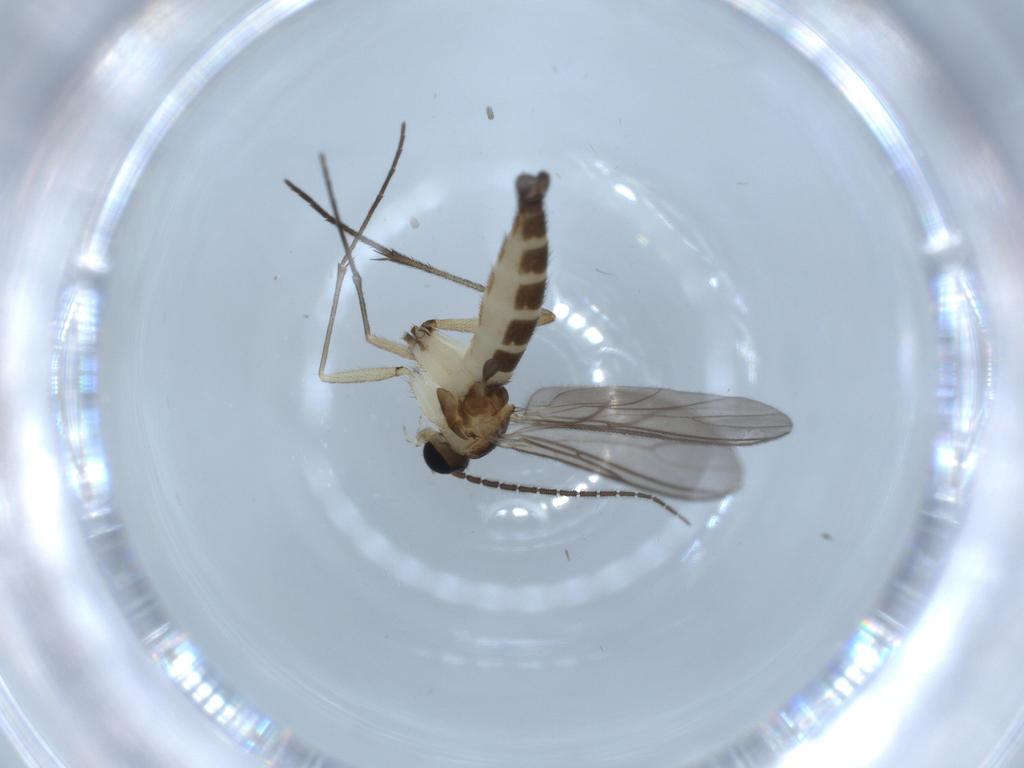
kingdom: Animalia
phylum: Arthropoda
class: Insecta
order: Diptera
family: Sciaridae
